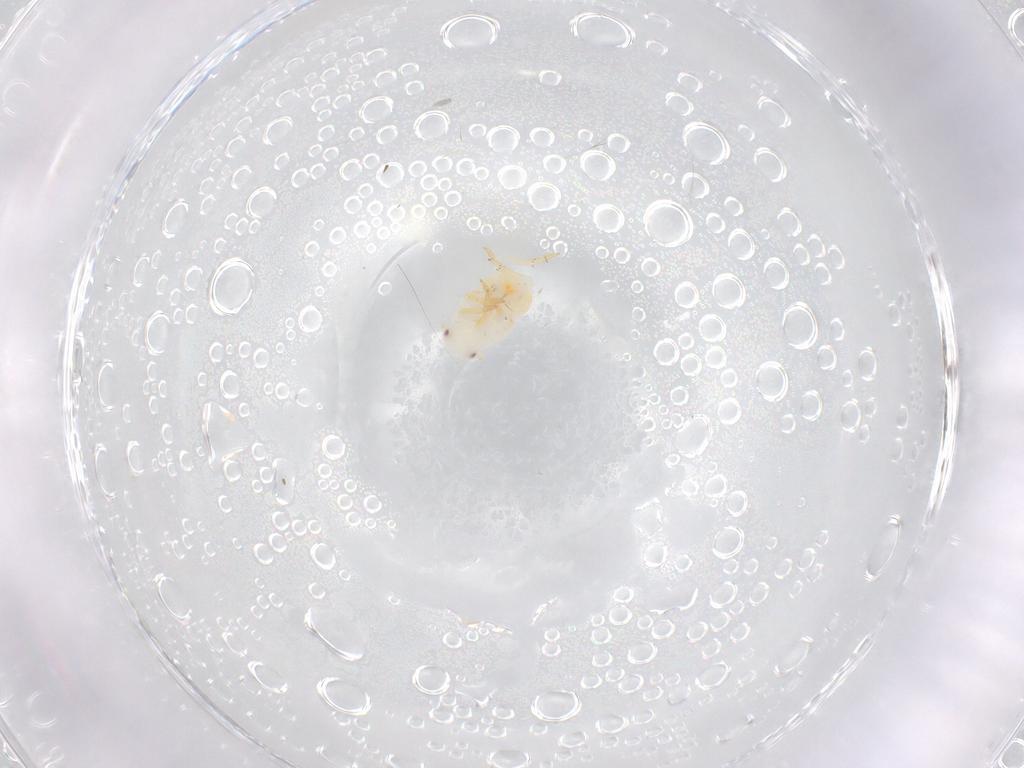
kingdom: Animalia
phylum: Arthropoda
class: Insecta
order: Hemiptera
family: Flatidae
